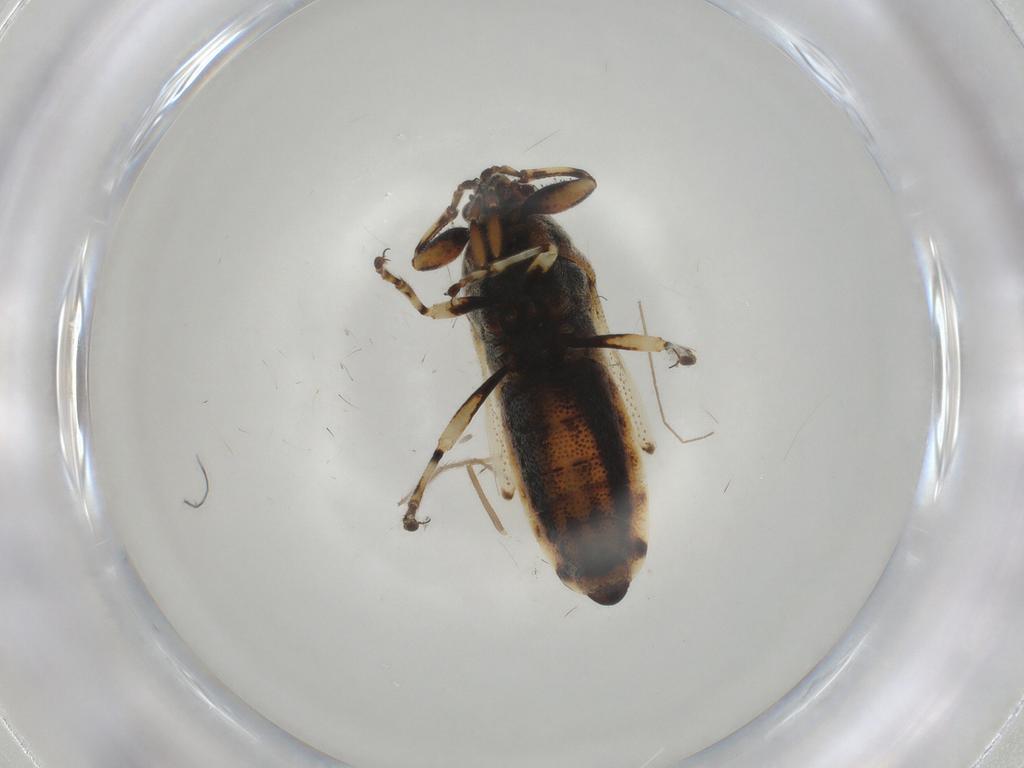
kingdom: Animalia
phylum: Arthropoda
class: Insecta
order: Hemiptera
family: Pachygronthidae
